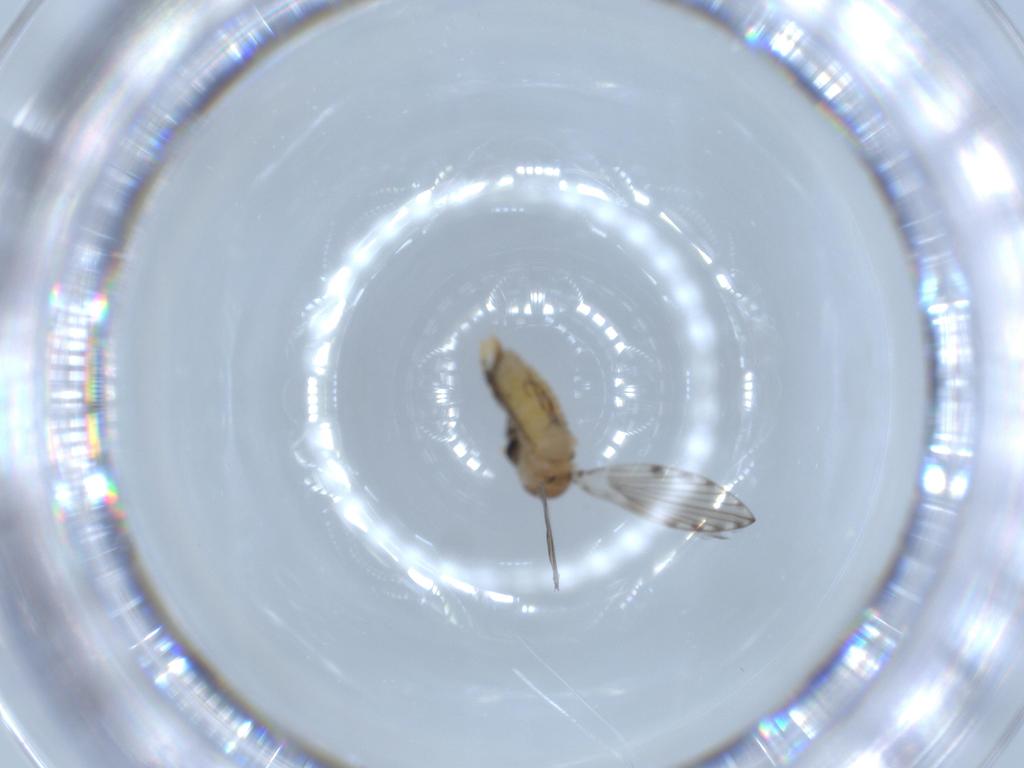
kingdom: Animalia
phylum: Arthropoda
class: Insecta
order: Diptera
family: Psychodidae
